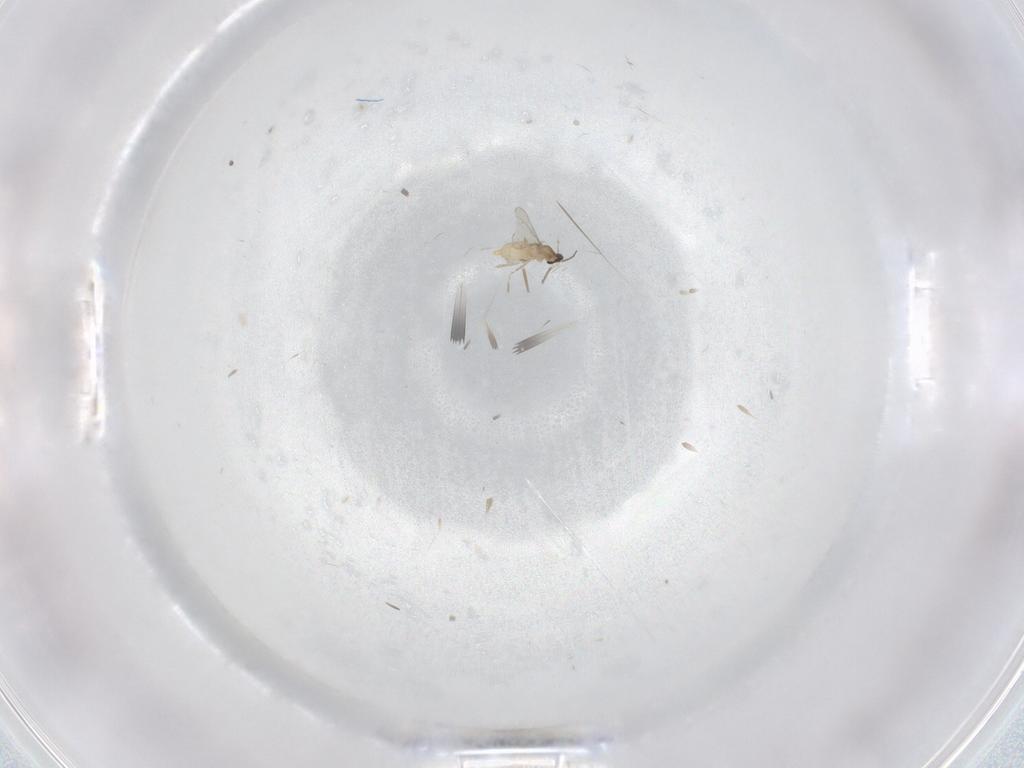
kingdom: Animalia
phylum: Arthropoda
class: Insecta
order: Diptera
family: Cecidomyiidae
